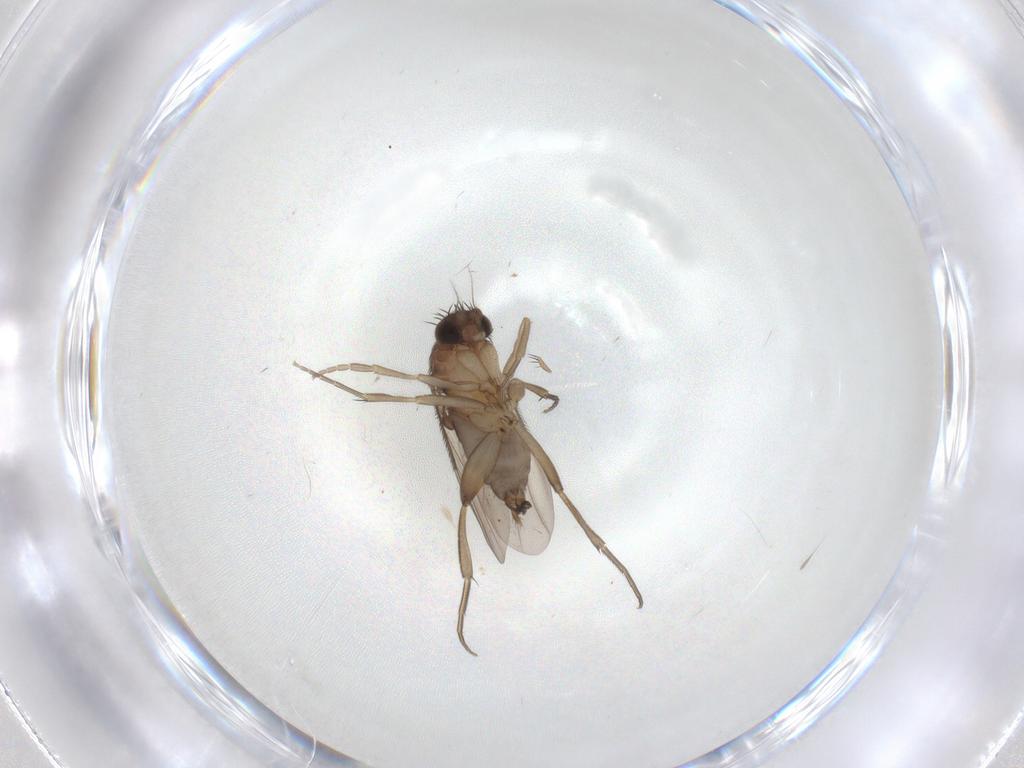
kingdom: Animalia
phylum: Arthropoda
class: Insecta
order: Diptera
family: Phoridae
